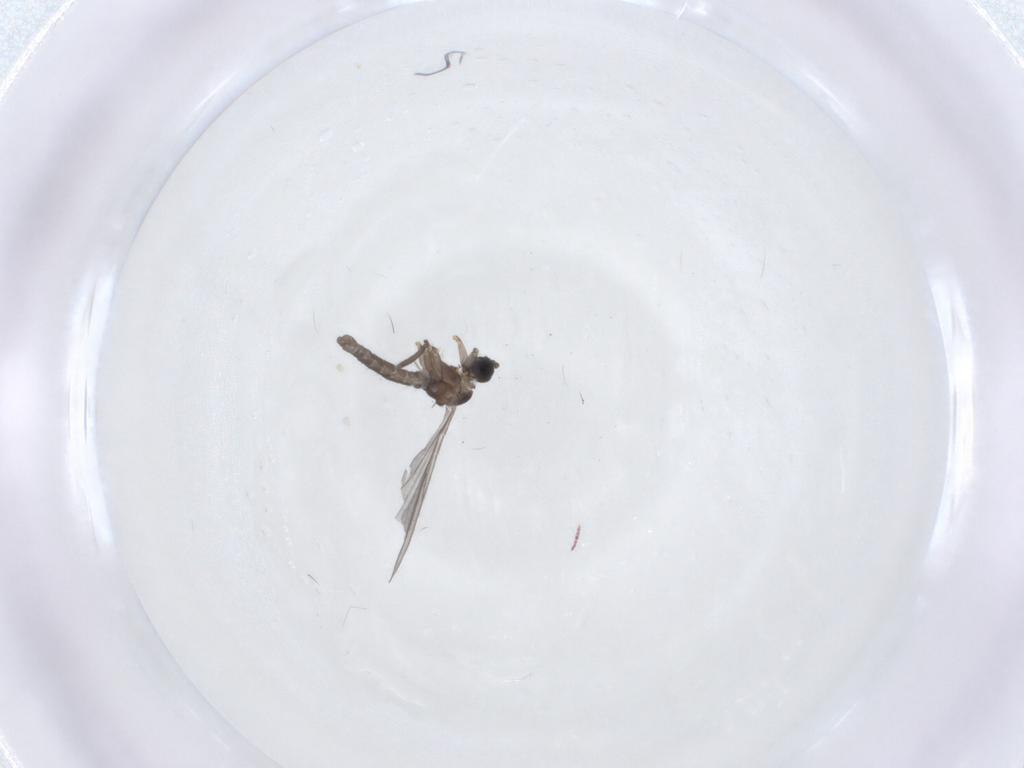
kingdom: Animalia
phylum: Arthropoda
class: Insecta
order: Diptera
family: Sciaridae
